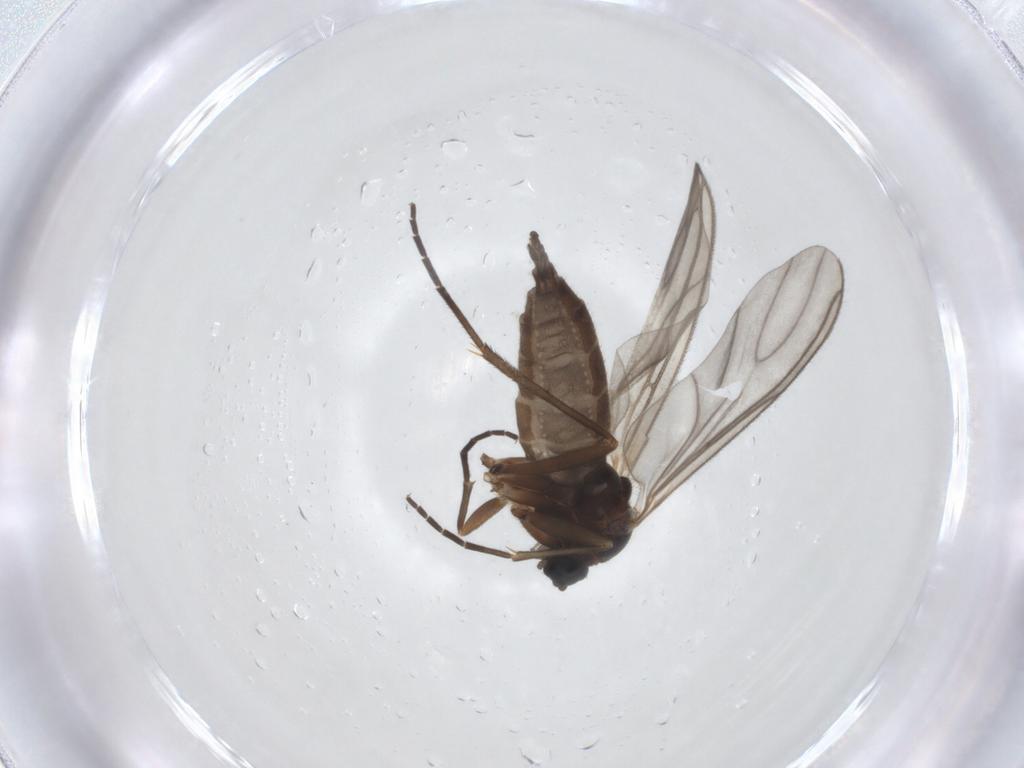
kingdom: Animalia
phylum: Arthropoda
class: Insecta
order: Diptera
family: Sciaridae
